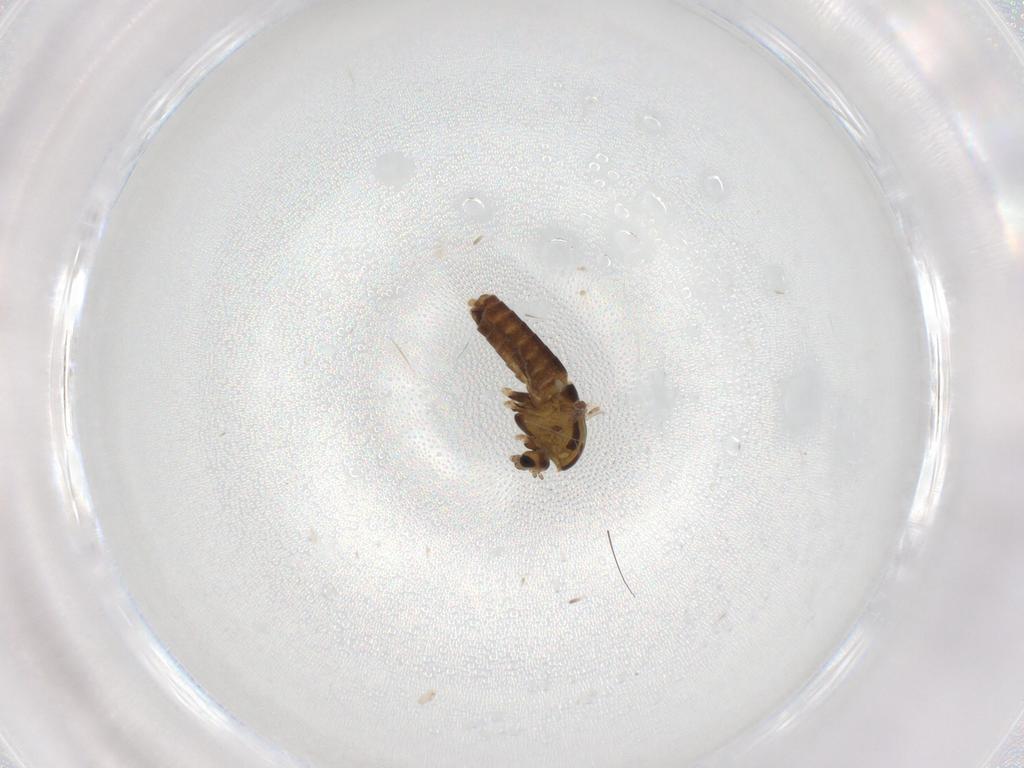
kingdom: Animalia
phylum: Arthropoda
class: Insecta
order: Diptera
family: Chironomidae
